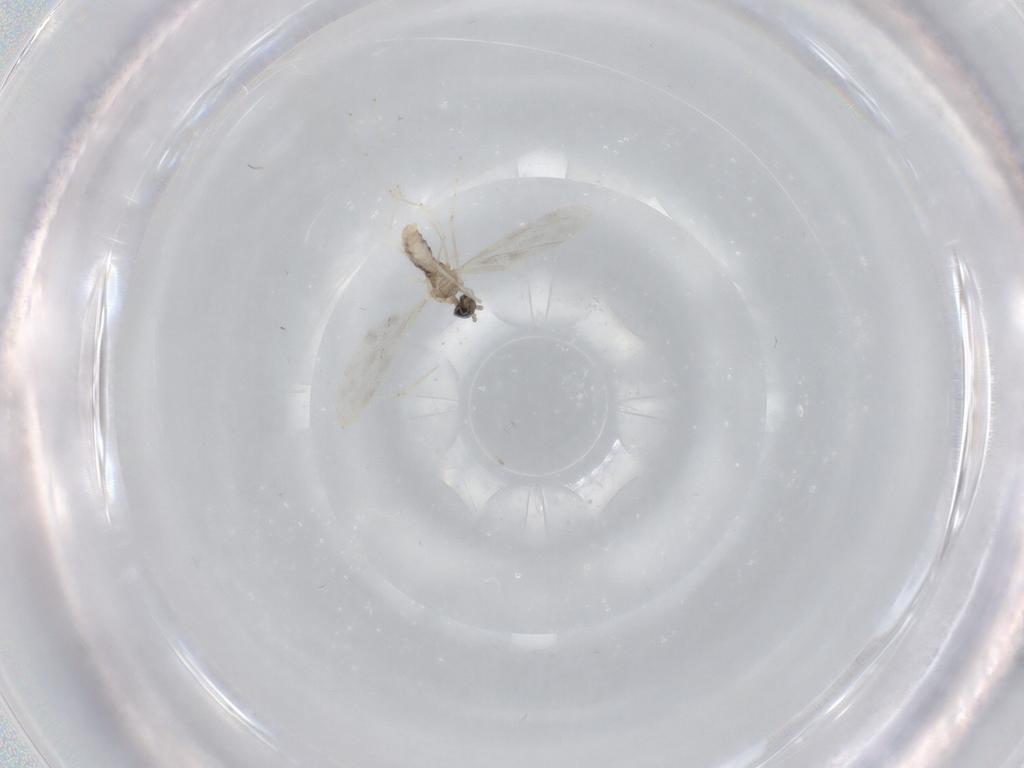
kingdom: Animalia
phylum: Arthropoda
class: Insecta
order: Diptera
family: Cecidomyiidae
